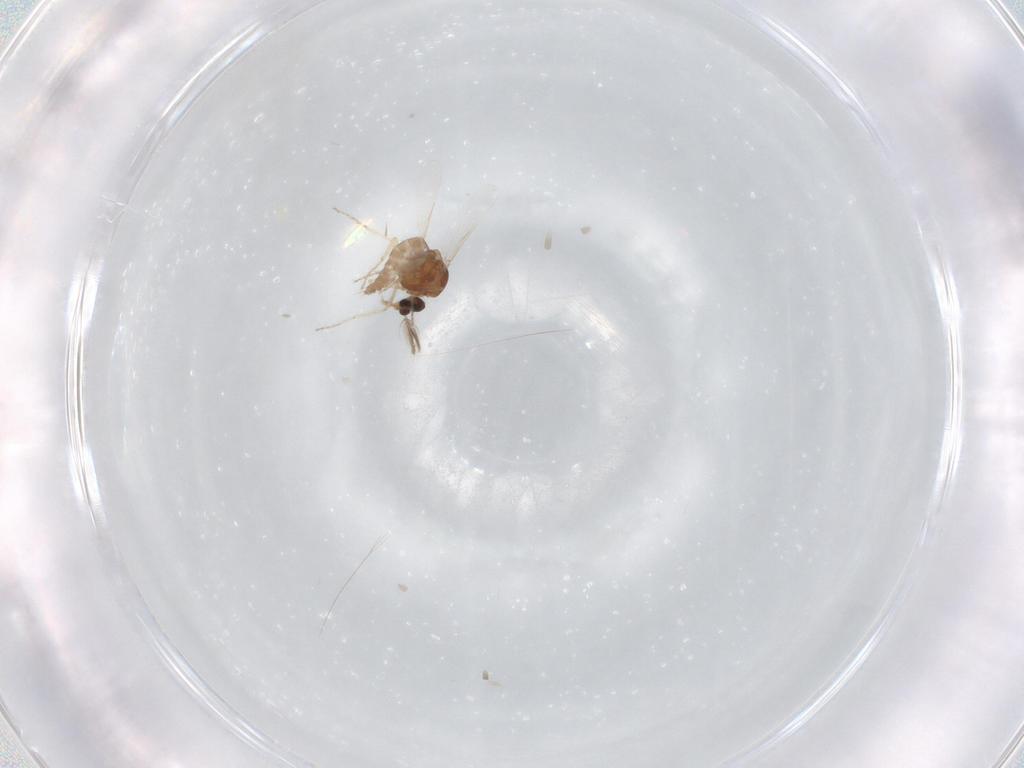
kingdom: Animalia
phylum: Arthropoda
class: Insecta
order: Diptera
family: Ceratopogonidae
